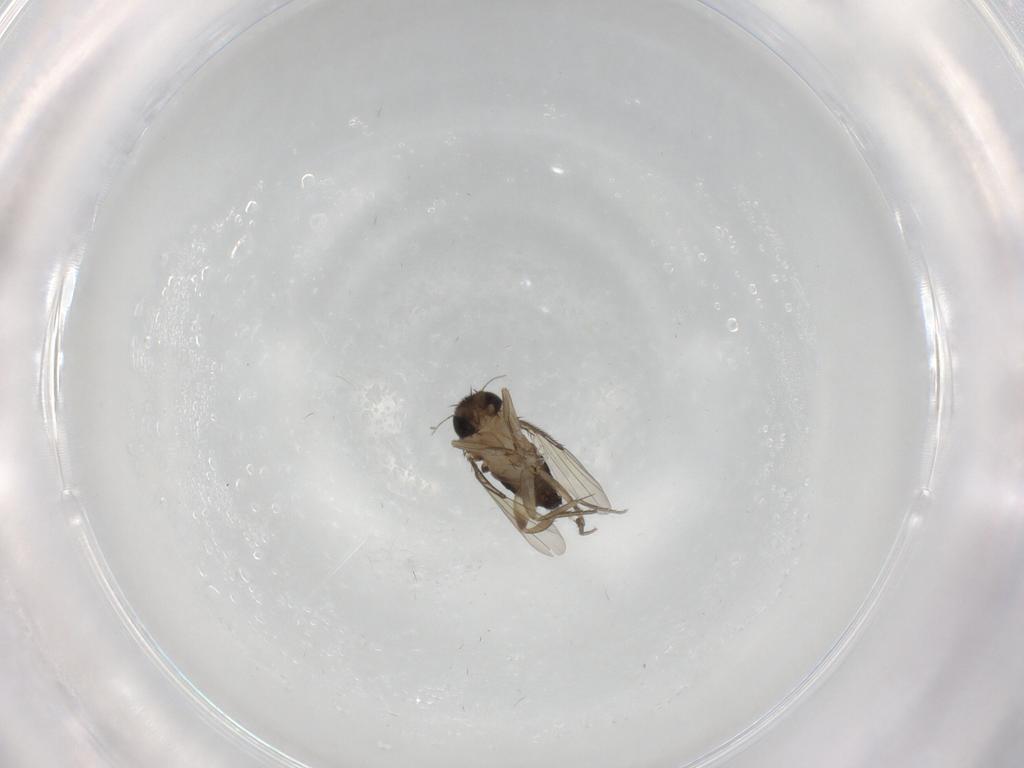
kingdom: Animalia
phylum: Arthropoda
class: Insecta
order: Diptera
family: Phoridae
